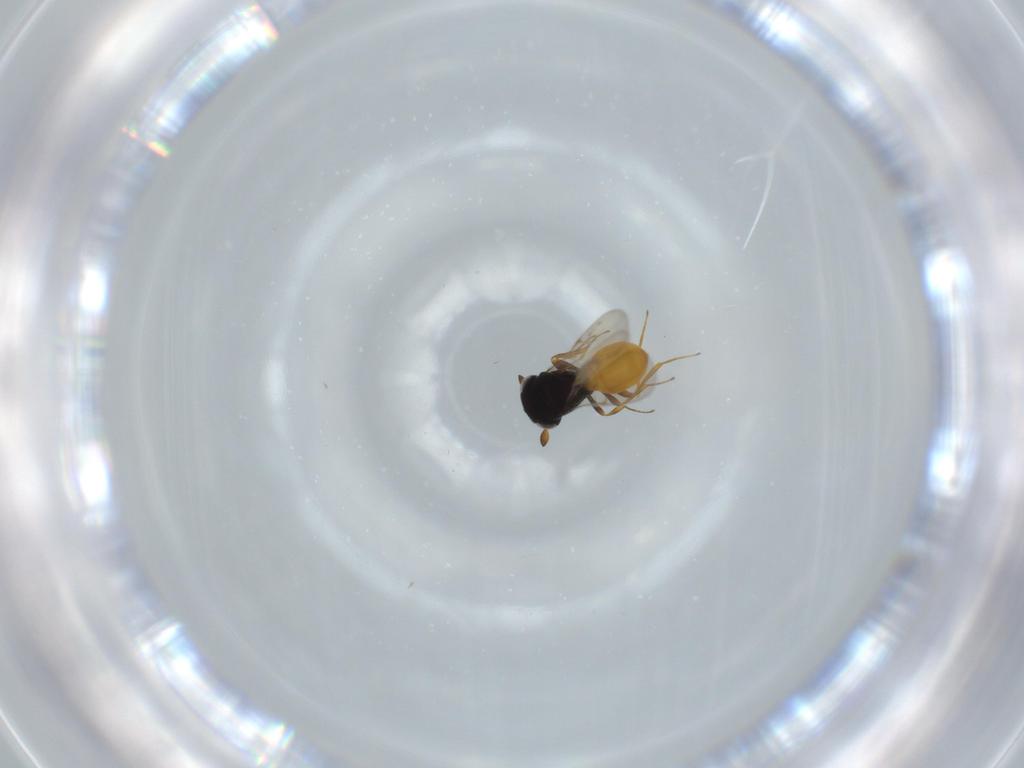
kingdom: Animalia
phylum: Arthropoda
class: Insecta
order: Hymenoptera
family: Scelionidae
